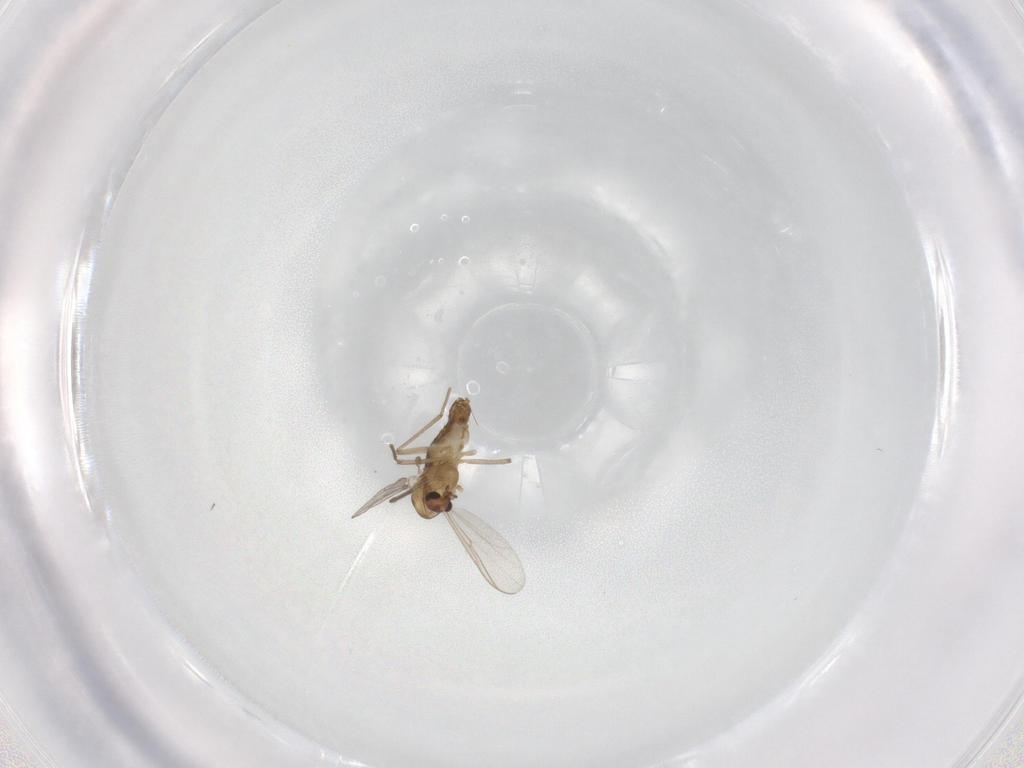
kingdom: Animalia
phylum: Arthropoda
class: Insecta
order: Diptera
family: Chironomidae
